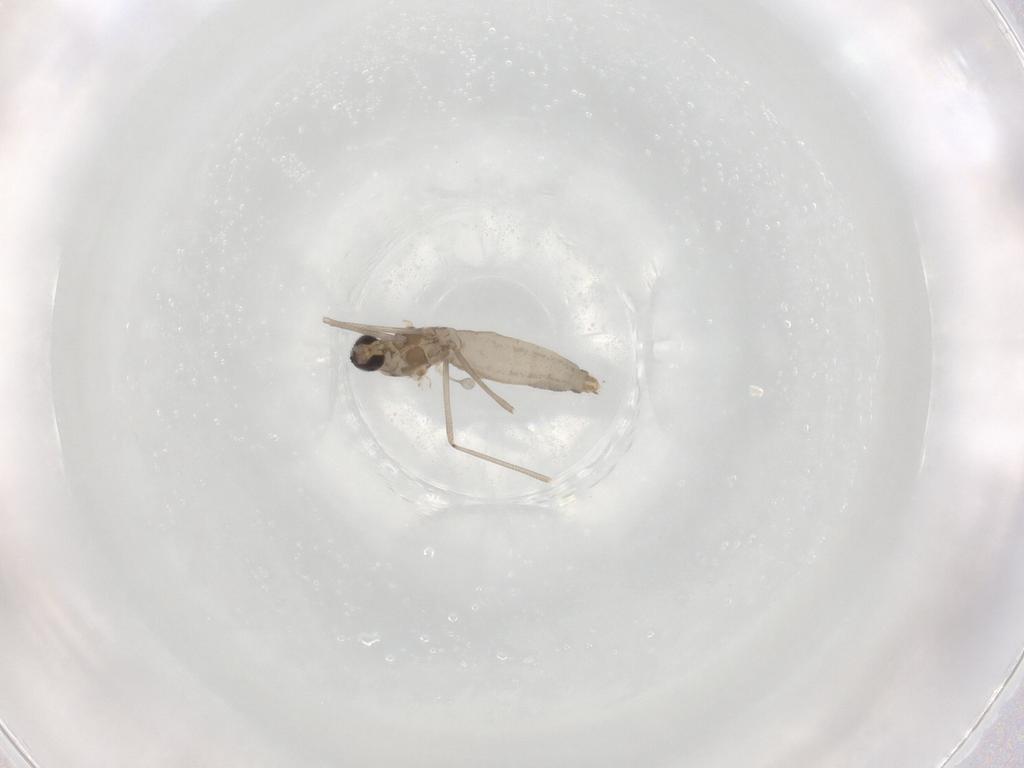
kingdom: Animalia
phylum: Arthropoda
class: Insecta
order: Diptera
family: Cecidomyiidae
